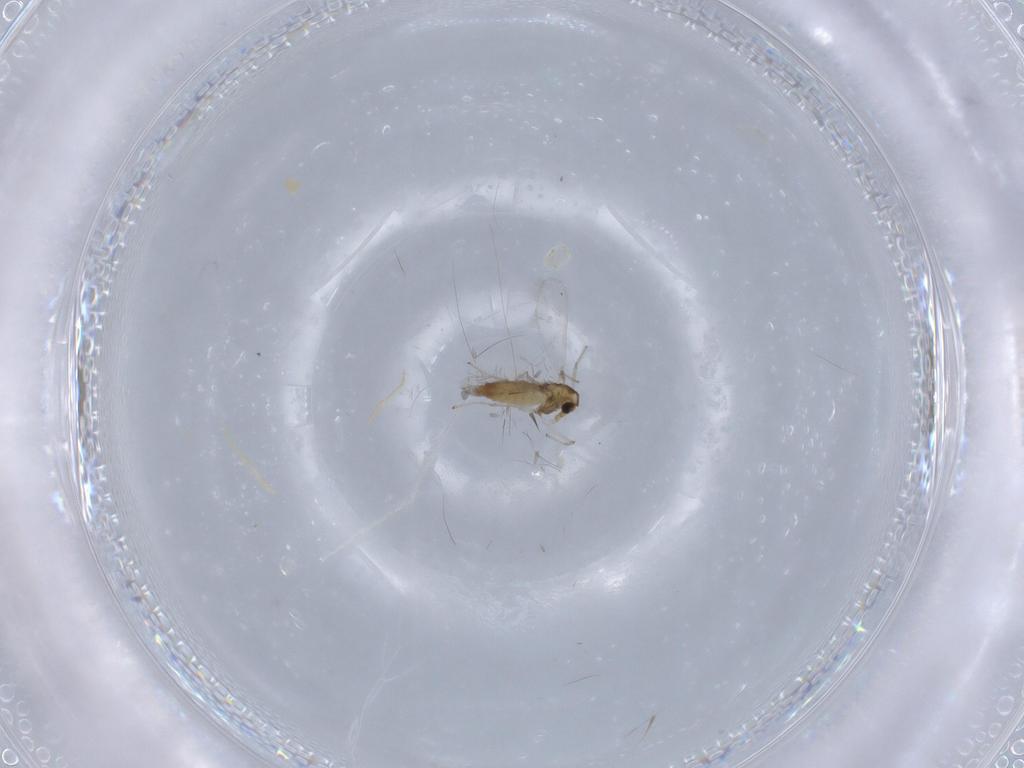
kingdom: Animalia
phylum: Arthropoda
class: Insecta
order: Diptera
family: Chironomidae
